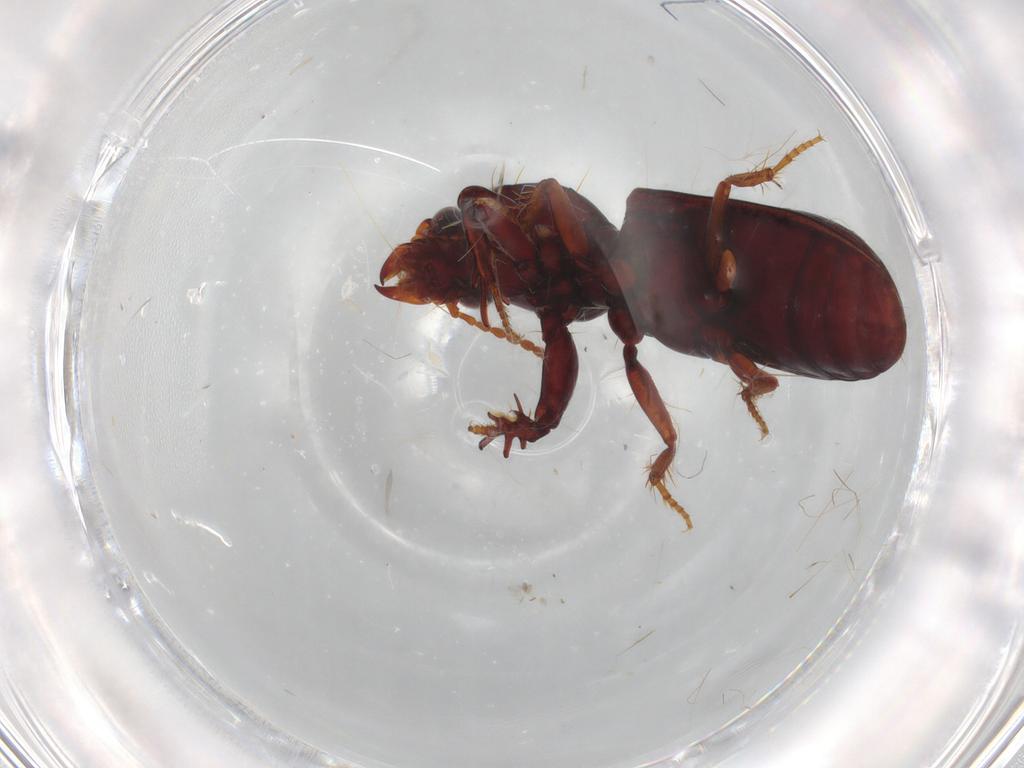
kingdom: Animalia
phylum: Arthropoda
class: Insecta
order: Coleoptera
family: Carabidae
